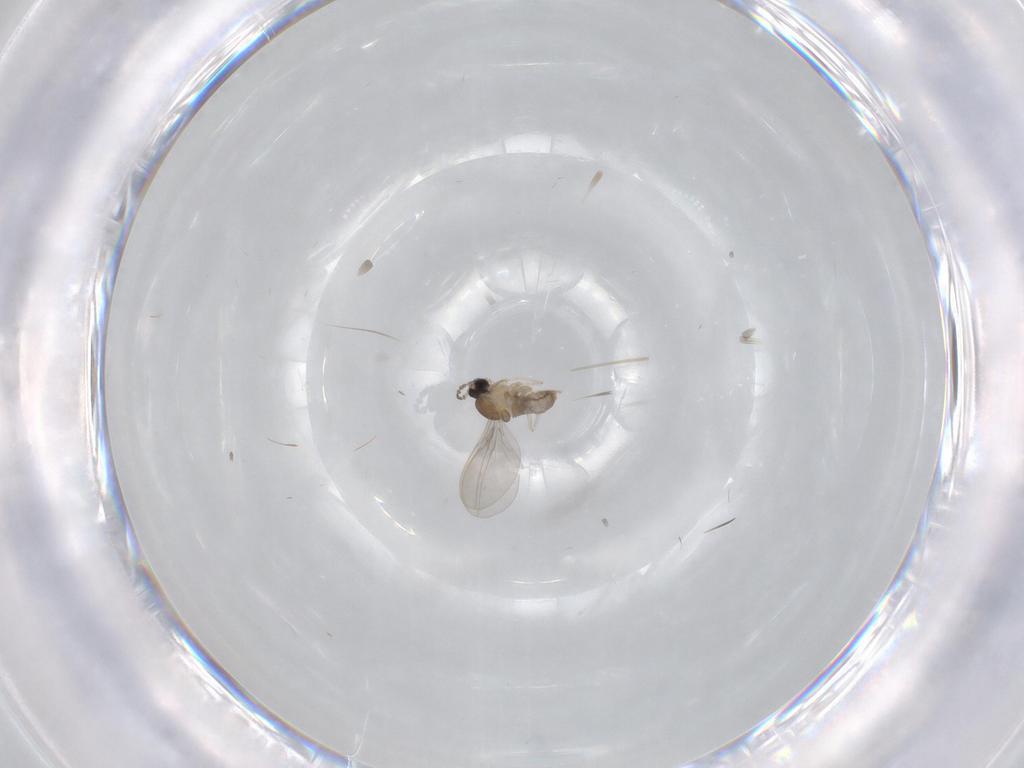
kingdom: Animalia
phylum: Arthropoda
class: Insecta
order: Diptera
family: Cecidomyiidae
